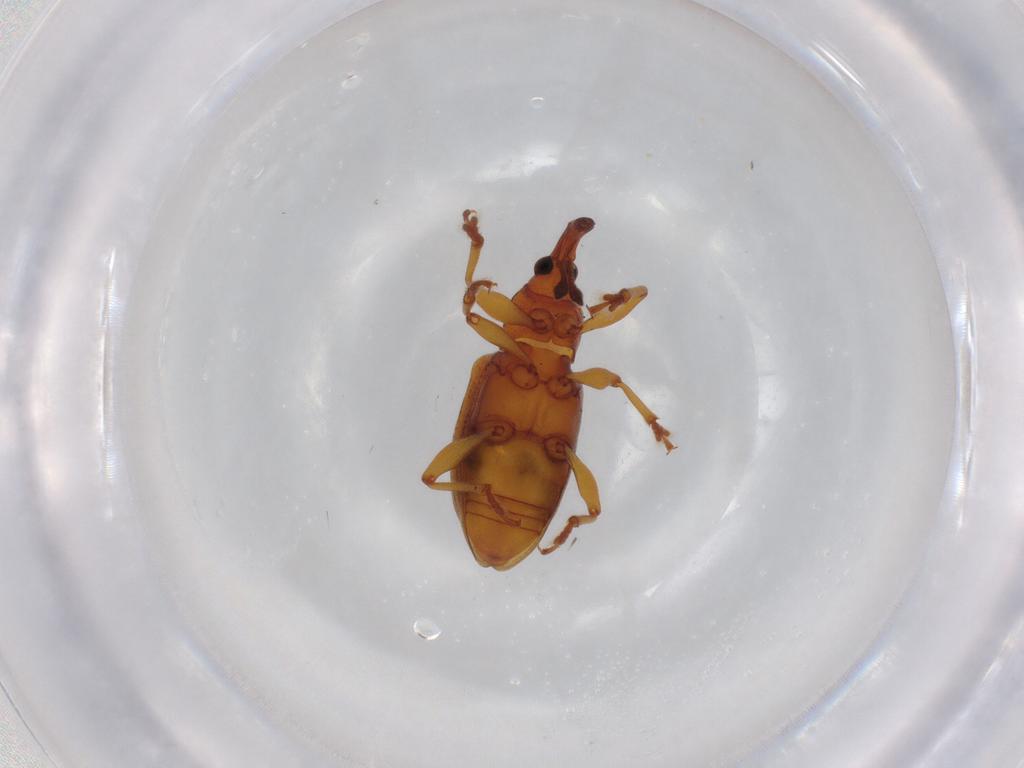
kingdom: Animalia
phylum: Arthropoda
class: Insecta
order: Coleoptera
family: Curculionidae
